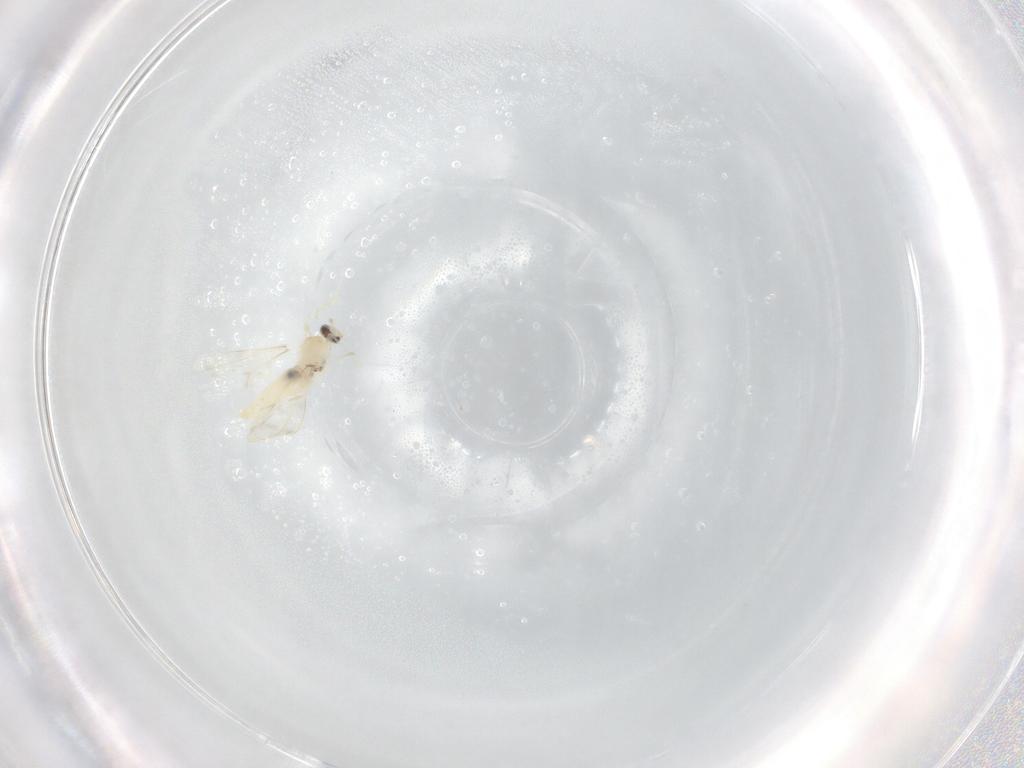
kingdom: Animalia
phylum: Arthropoda
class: Insecta
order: Diptera
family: Cecidomyiidae
